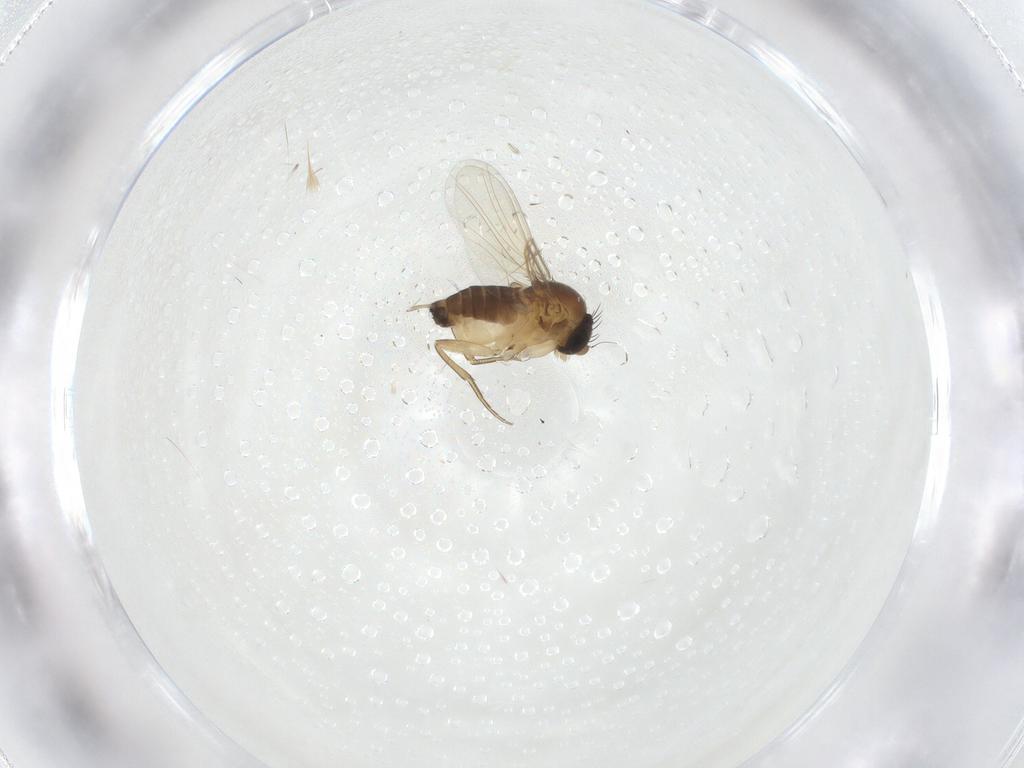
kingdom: Animalia
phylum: Arthropoda
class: Insecta
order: Diptera
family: Phoridae
